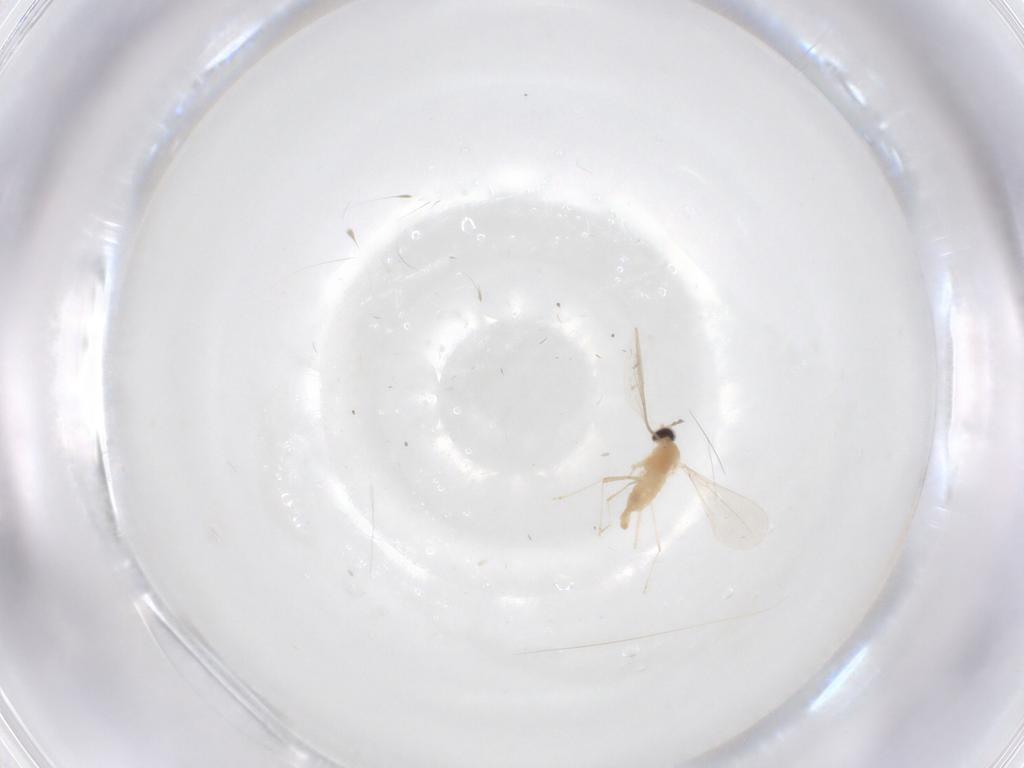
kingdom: Animalia
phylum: Arthropoda
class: Insecta
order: Diptera
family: Cecidomyiidae
